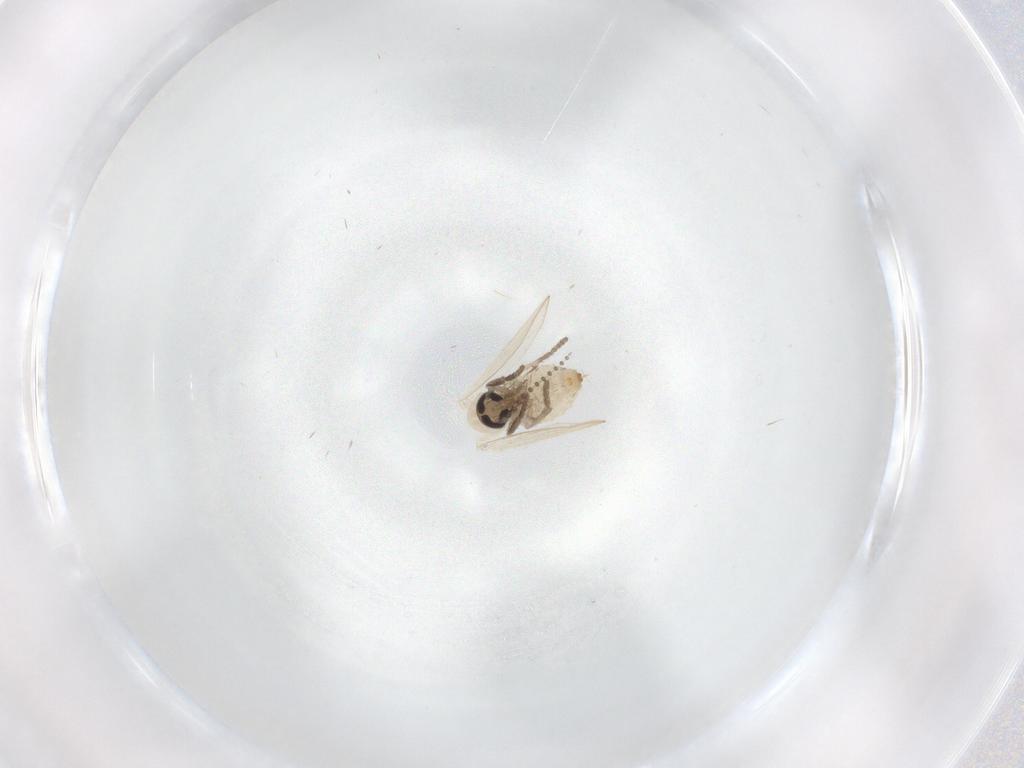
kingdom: Animalia
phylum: Arthropoda
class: Insecta
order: Diptera
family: Psychodidae
